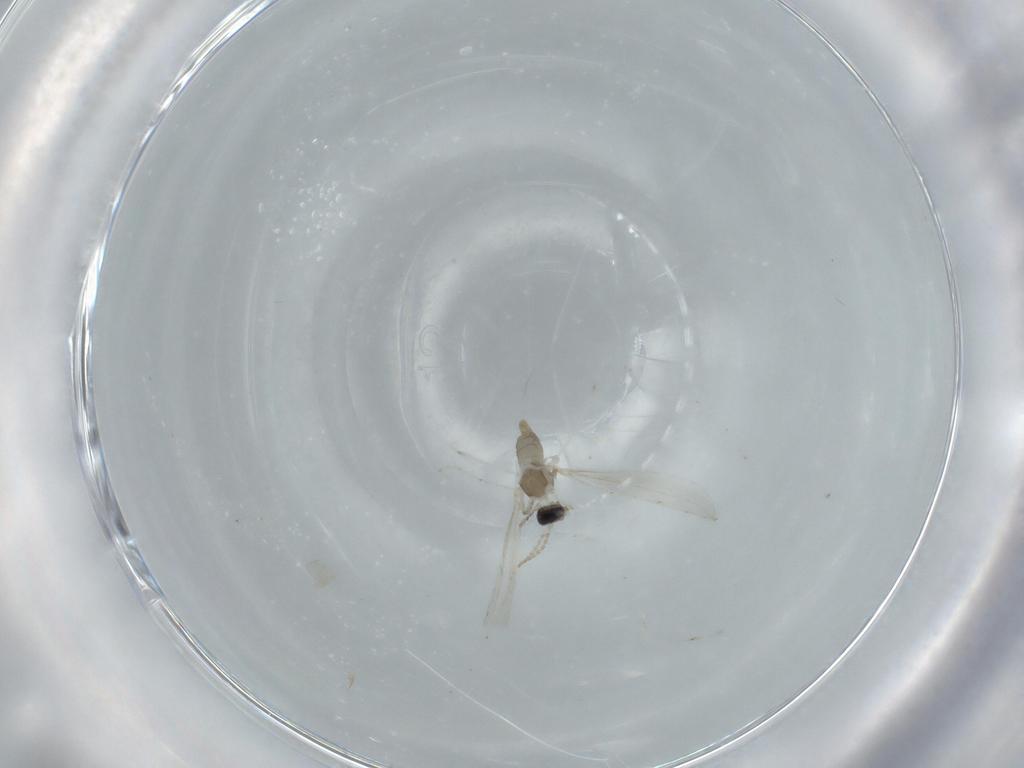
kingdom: Animalia
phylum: Arthropoda
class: Insecta
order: Diptera
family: Cecidomyiidae
